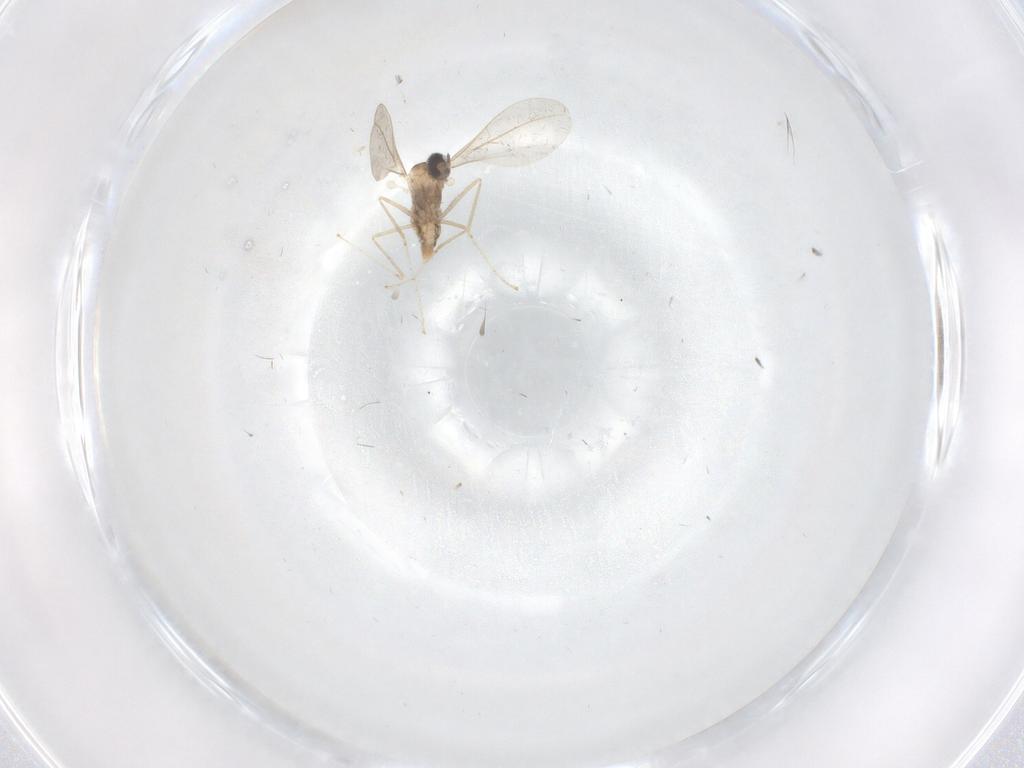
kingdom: Animalia
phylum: Arthropoda
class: Insecta
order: Diptera
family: Cecidomyiidae
